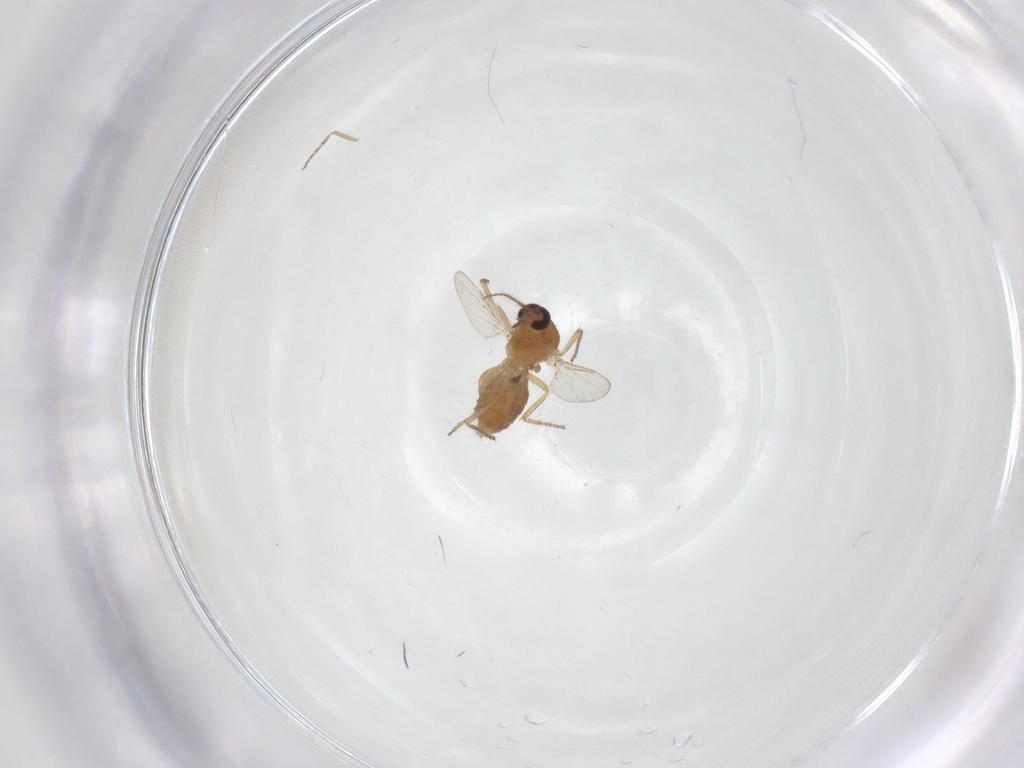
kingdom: Animalia
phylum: Arthropoda
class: Insecta
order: Diptera
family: Ceratopogonidae
